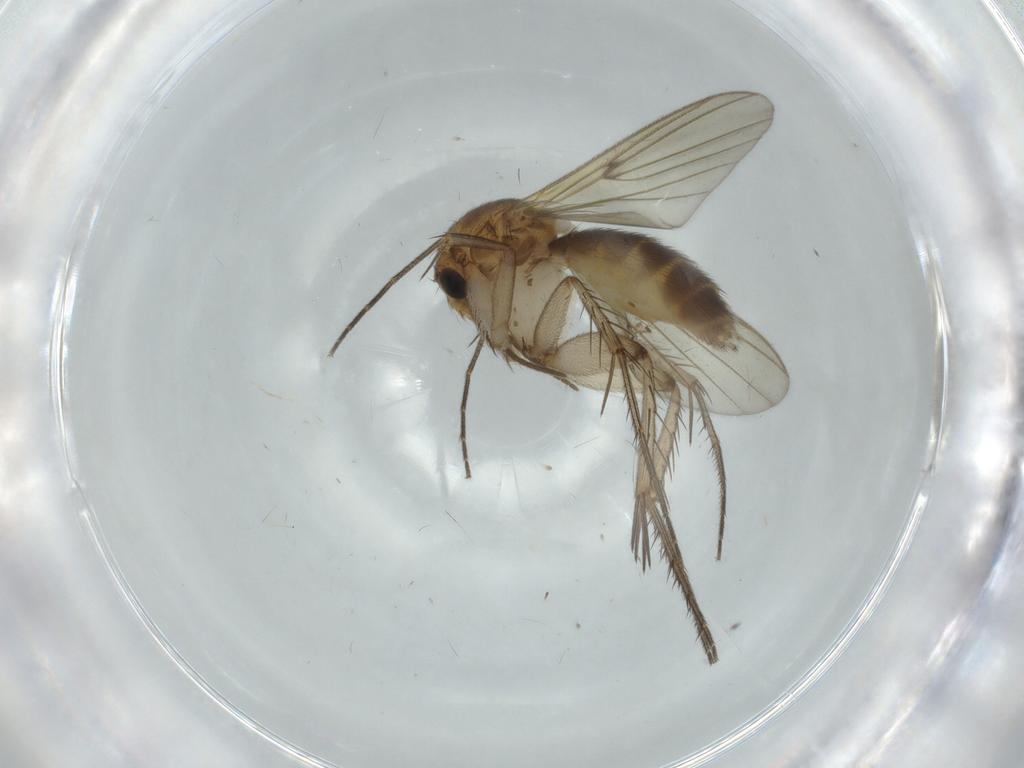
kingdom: Animalia
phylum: Arthropoda
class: Insecta
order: Diptera
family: Mycetophilidae
